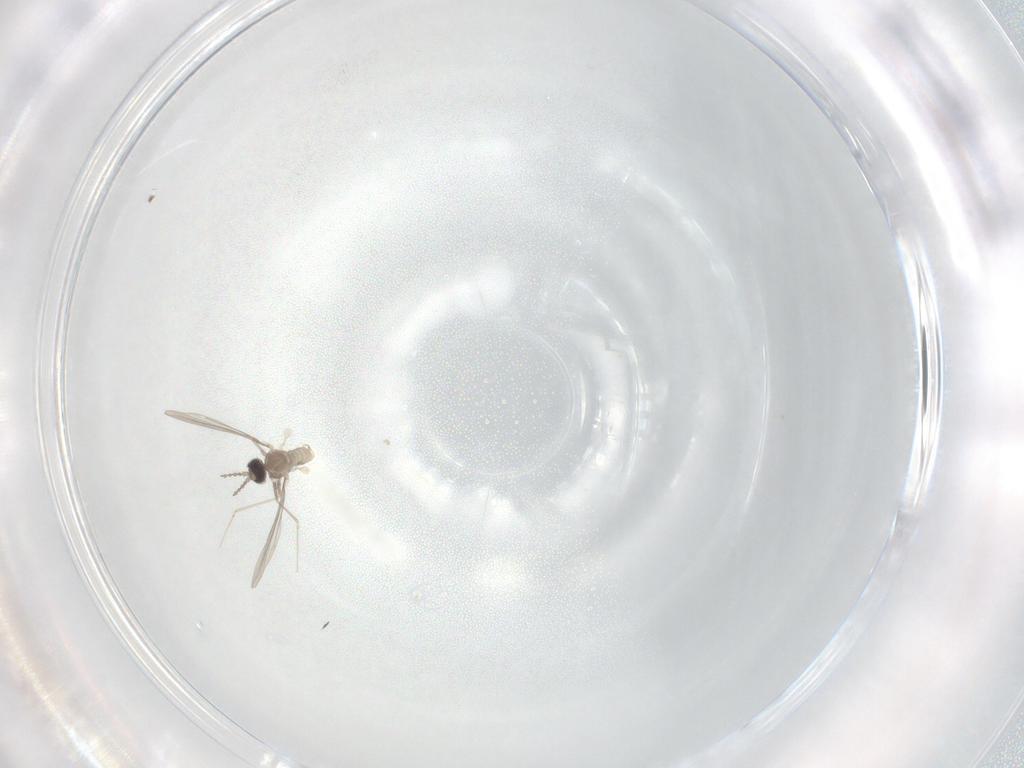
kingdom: Animalia
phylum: Arthropoda
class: Insecta
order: Diptera
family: Cecidomyiidae
